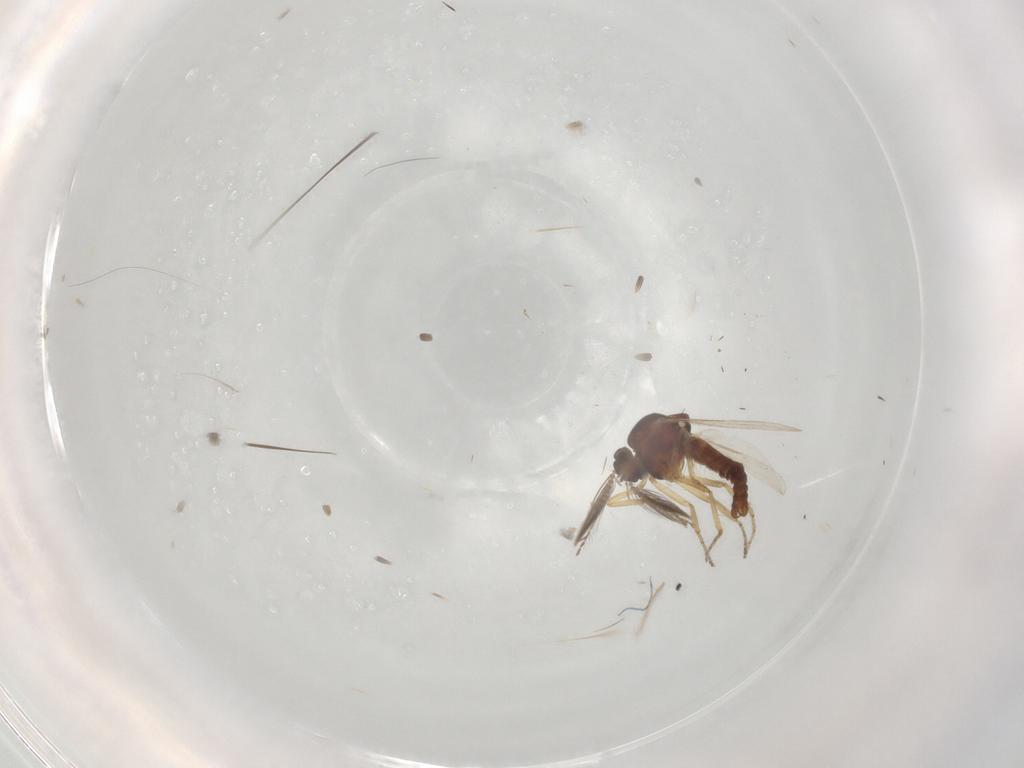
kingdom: Animalia
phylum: Arthropoda
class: Insecta
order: Diptera
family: Ceratopogonidae
